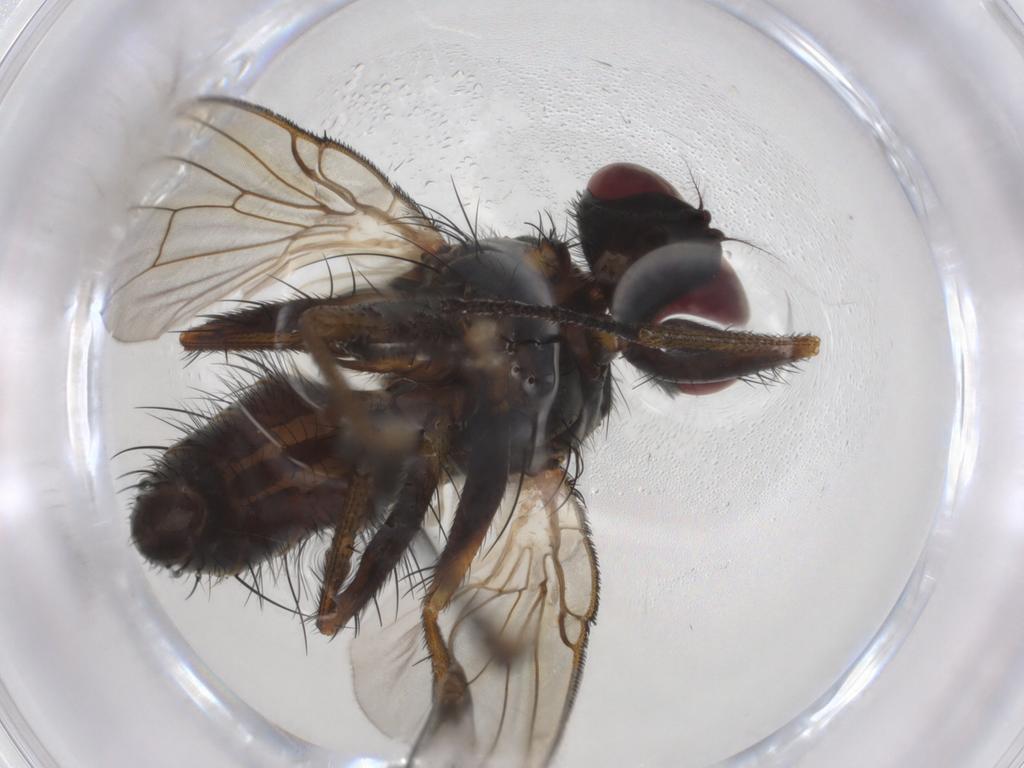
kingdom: Animalia
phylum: Arthropoda
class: Insecta
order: Diptera
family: Muscidae
